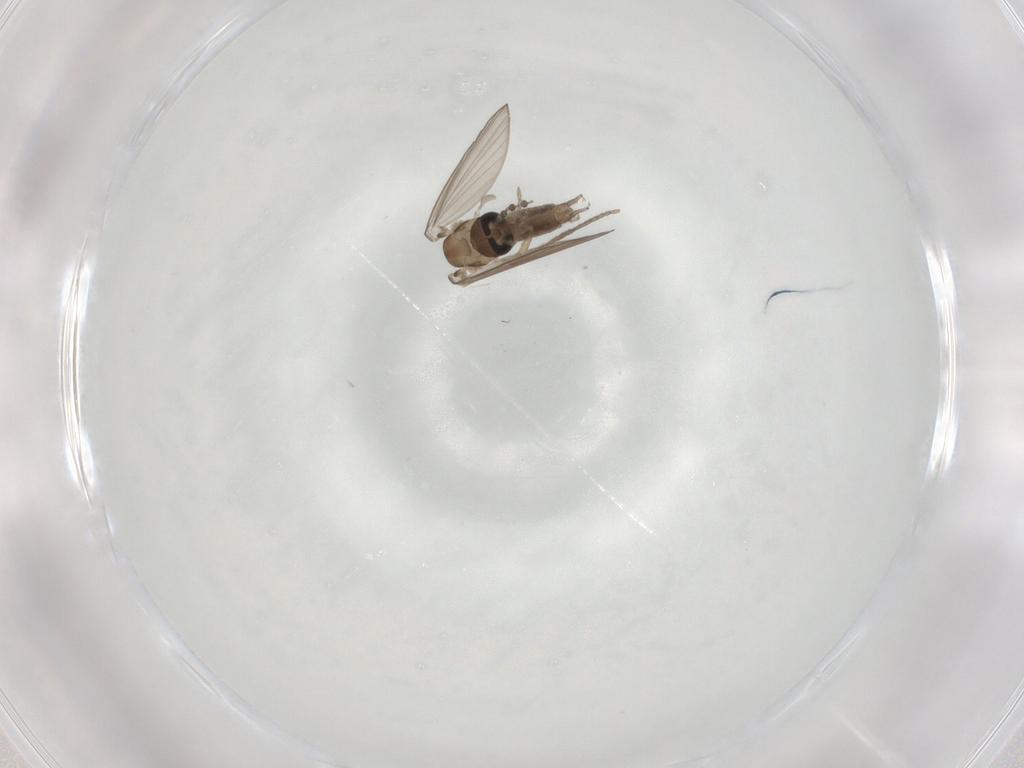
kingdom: Animalia
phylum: Arthropoda
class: Insecta
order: Diptera
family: Psychodidae
